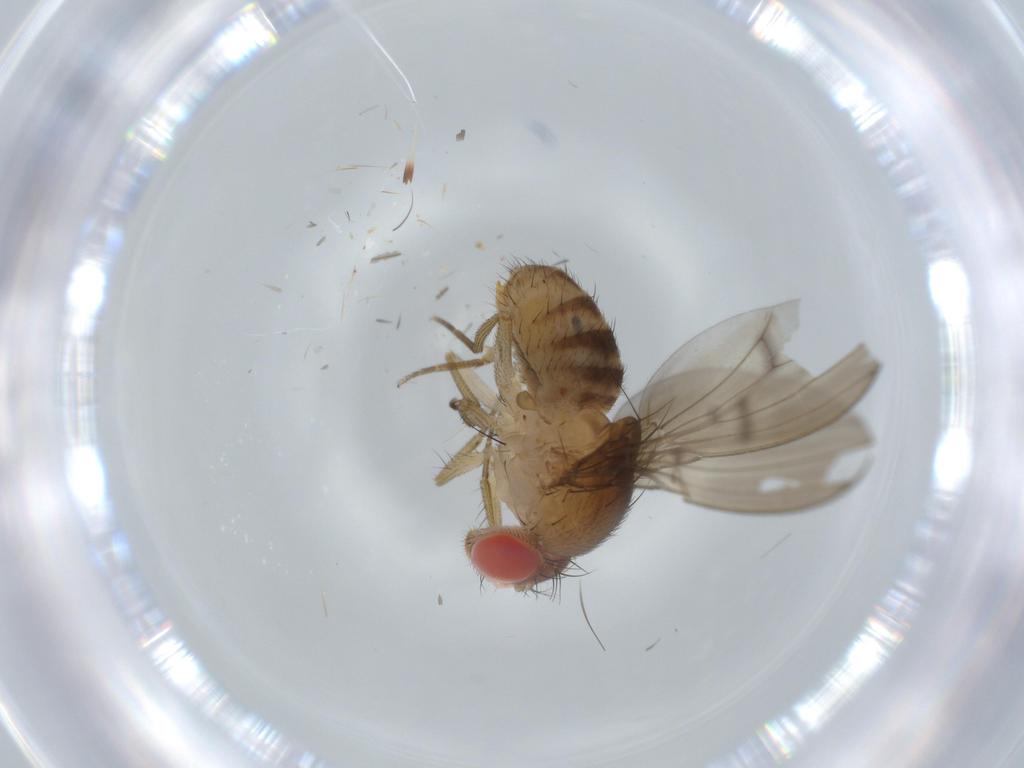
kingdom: Animalia
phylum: Arthropoda
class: Insecta
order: Diptera
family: Drosophilidae
